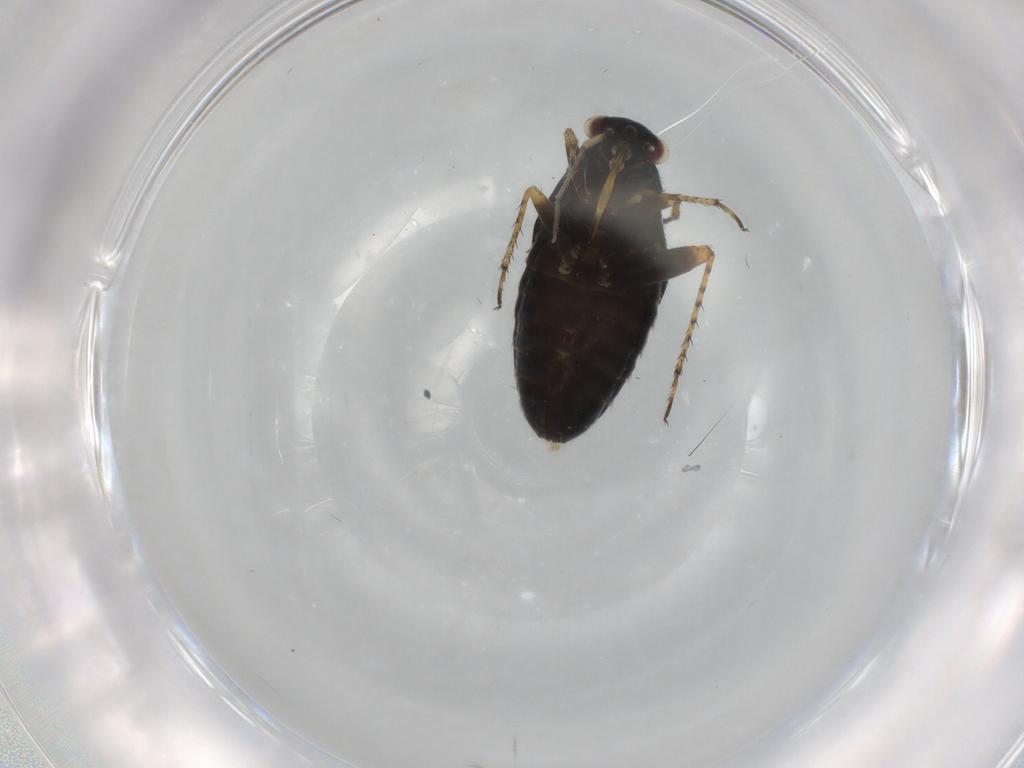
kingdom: Animalia
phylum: Arthropoda
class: Insecta
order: Hemiptera
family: Miridae
